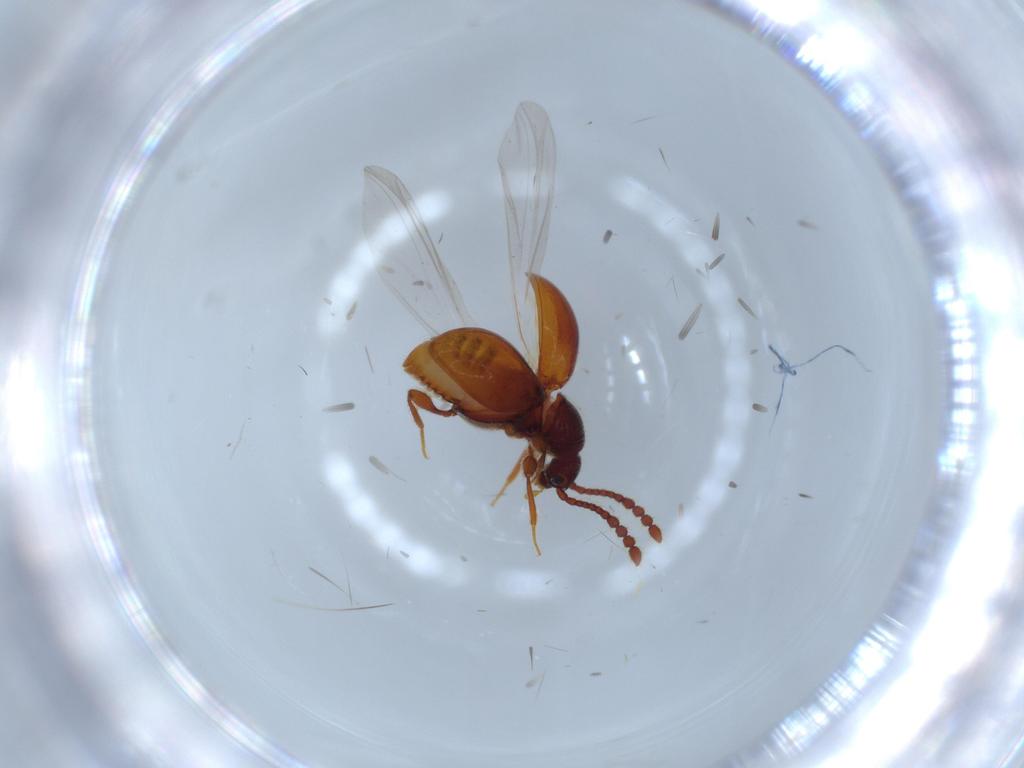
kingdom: Animalia
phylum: Arthropoda
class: Insecta
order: Coleoptera
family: Staphylinidae
